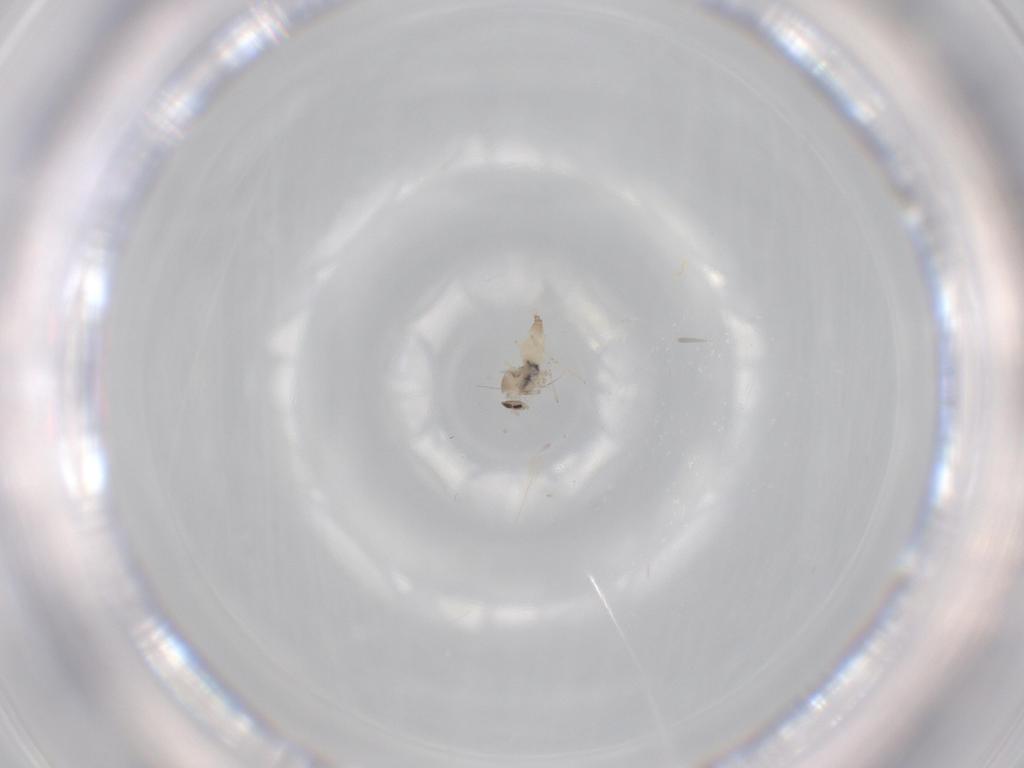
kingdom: Animalia
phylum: Arthropoda
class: Insecta
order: Diptera
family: Cecidomyiidae
